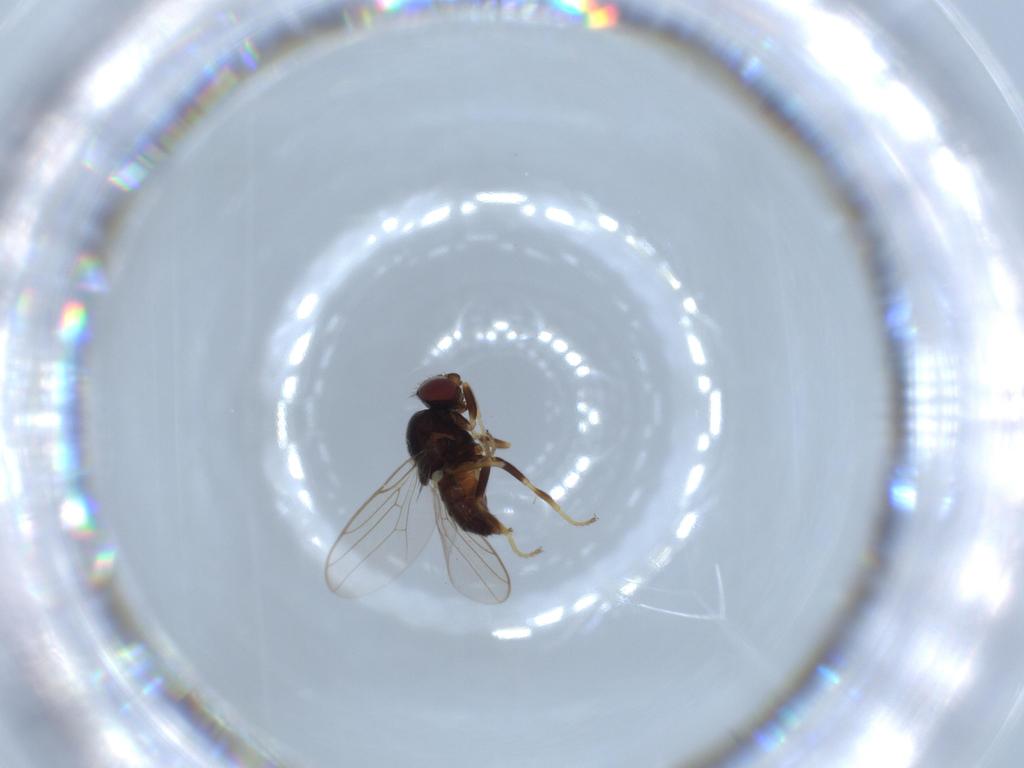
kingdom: Animalia
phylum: Arthropoda
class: Insecta
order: Diptera
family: Chloropidae
